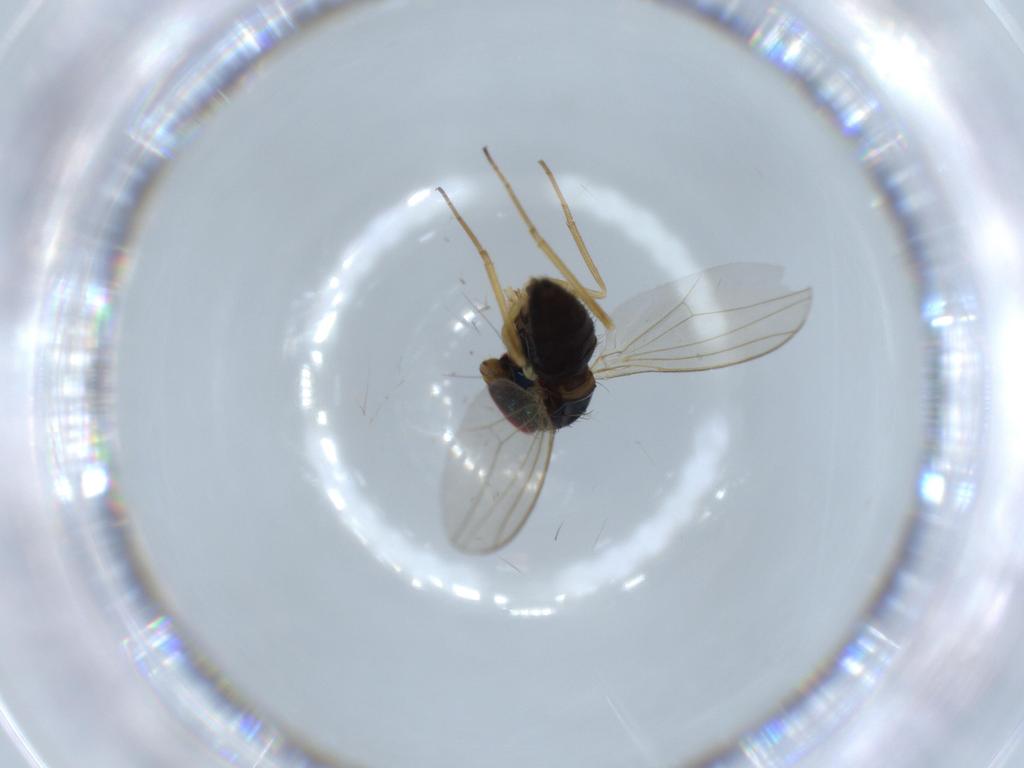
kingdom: Animalia
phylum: Arthropoda
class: Insecta
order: Diptera
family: Dolichopodidae
